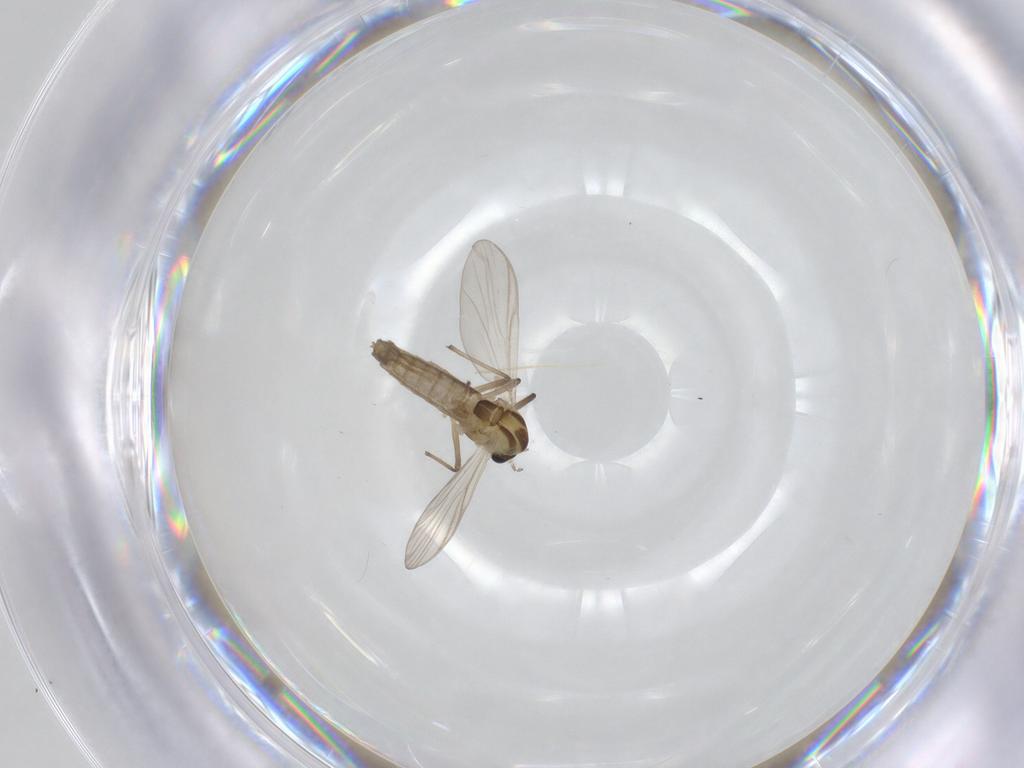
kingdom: Animalia
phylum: Arthropoda
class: Insecta
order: Diptera
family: Chironomidae
